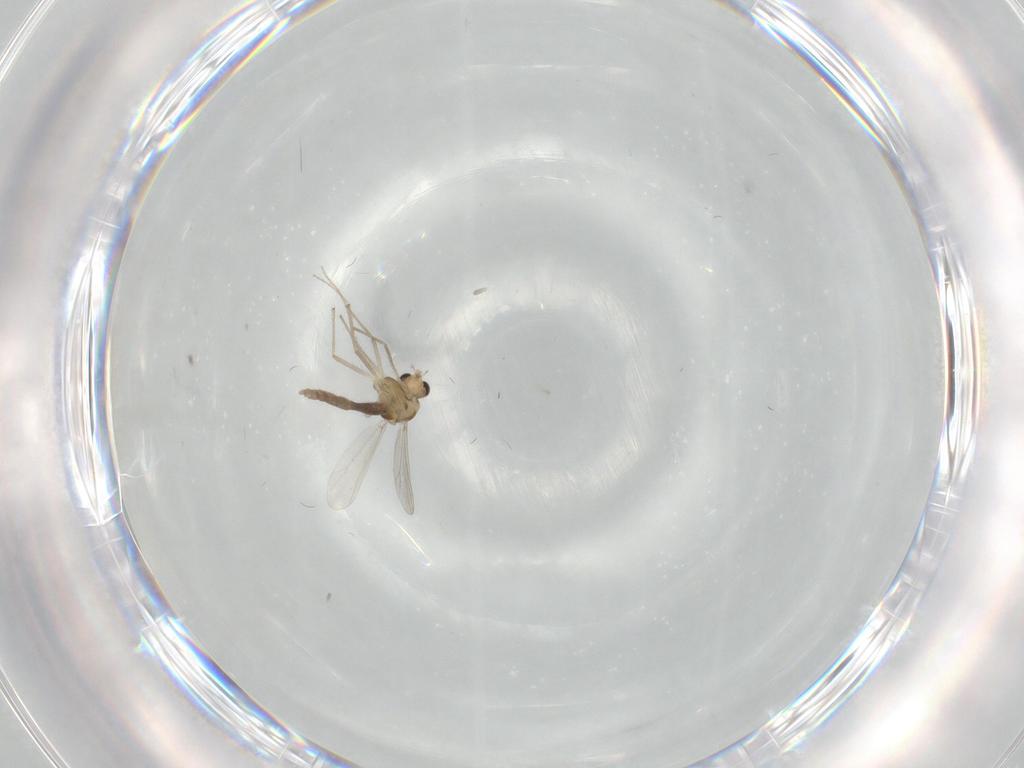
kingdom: Animalia
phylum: Arthropoda
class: Insecta
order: Diptera
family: Chironomidae
